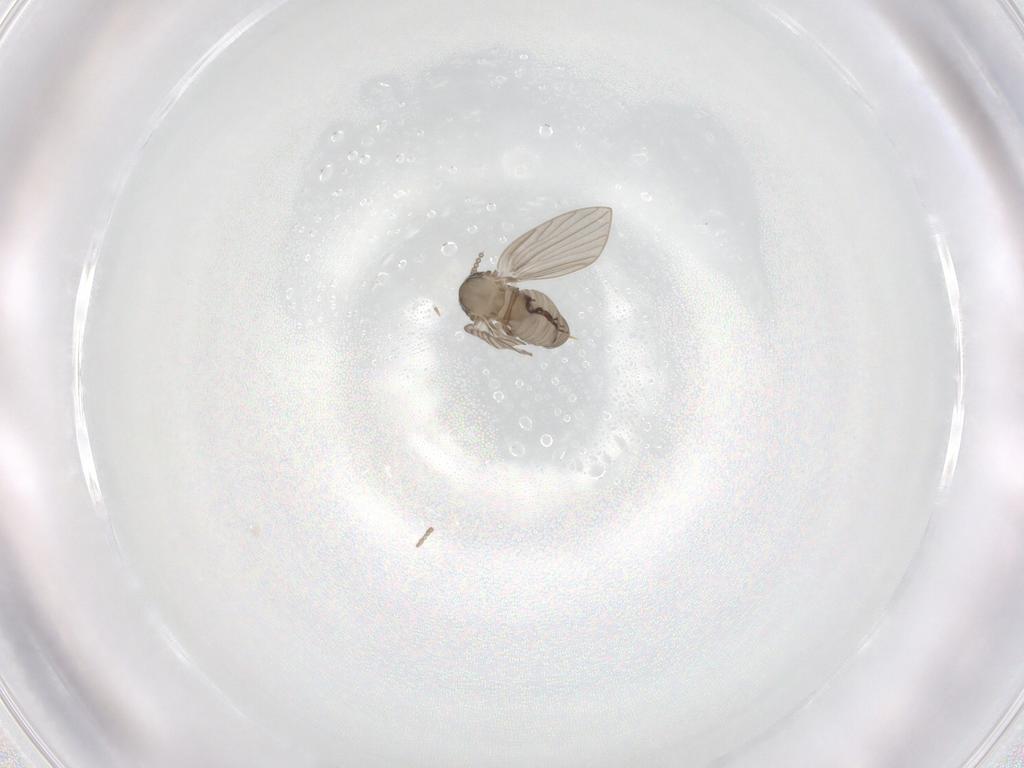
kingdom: Animalia
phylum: Arthropoda
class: Insecta
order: Diptera
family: Psychodidae
